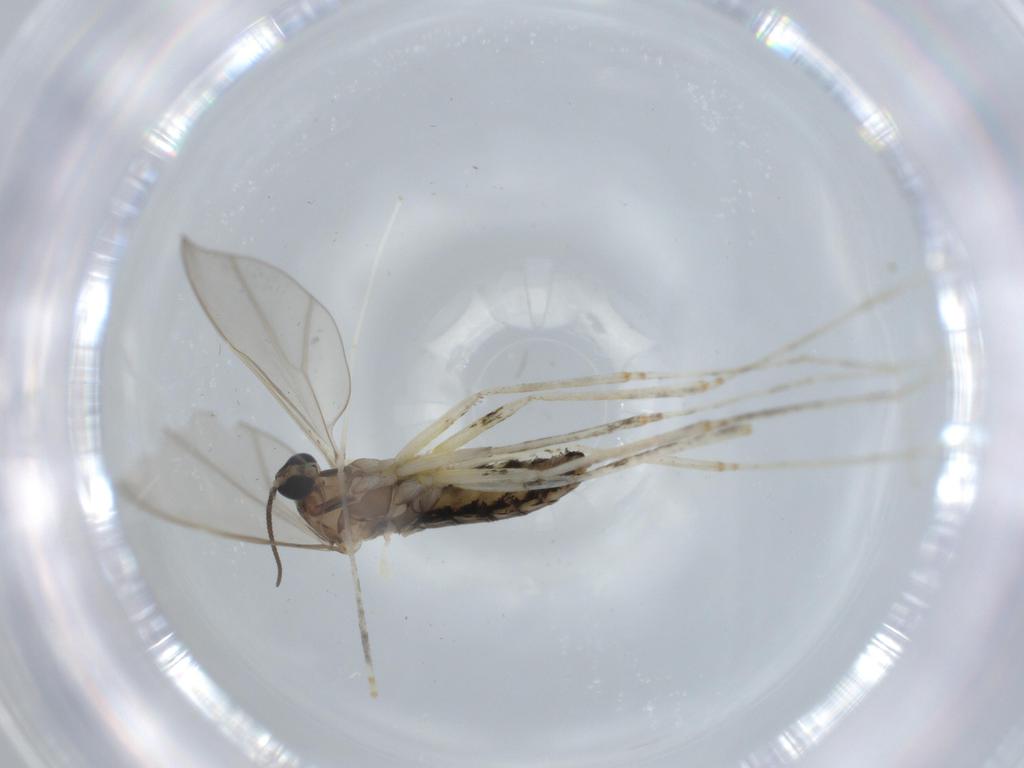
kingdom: Animalia
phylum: Arthropoda
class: Insecta
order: Diptera
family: Cecidomyiidae
